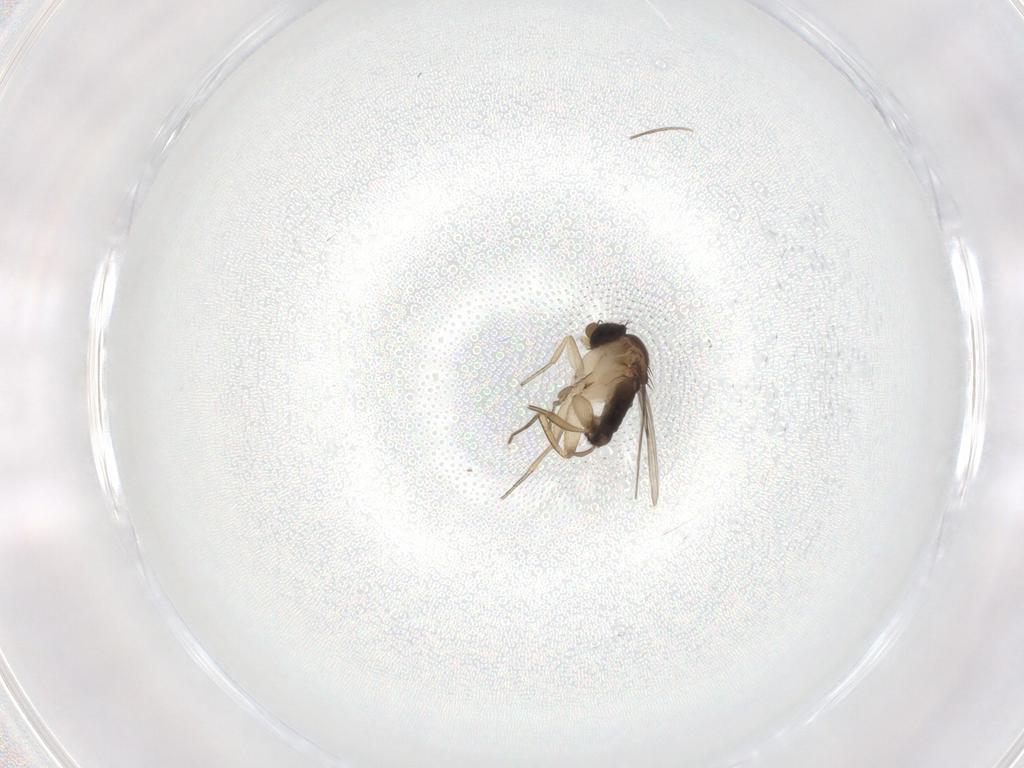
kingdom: Animalia
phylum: Arthropoda
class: Insecta
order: Diptera
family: Phoridae
